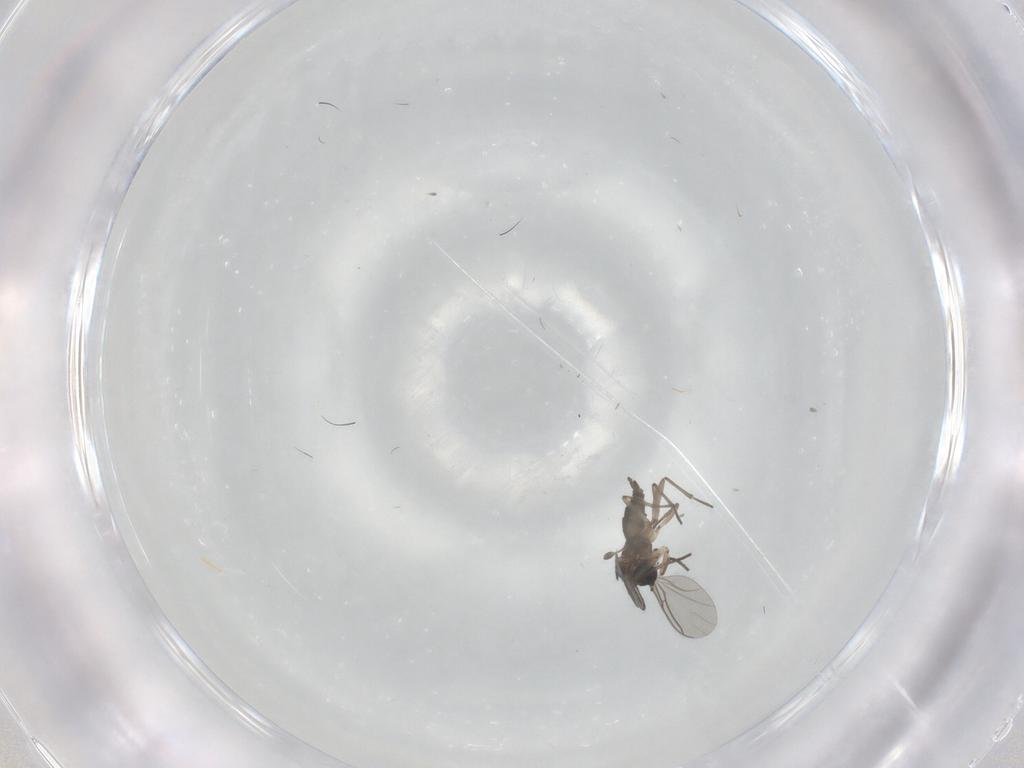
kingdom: Animalia
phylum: Arthropoda
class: Insecta
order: Diptera
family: Sciaridae
